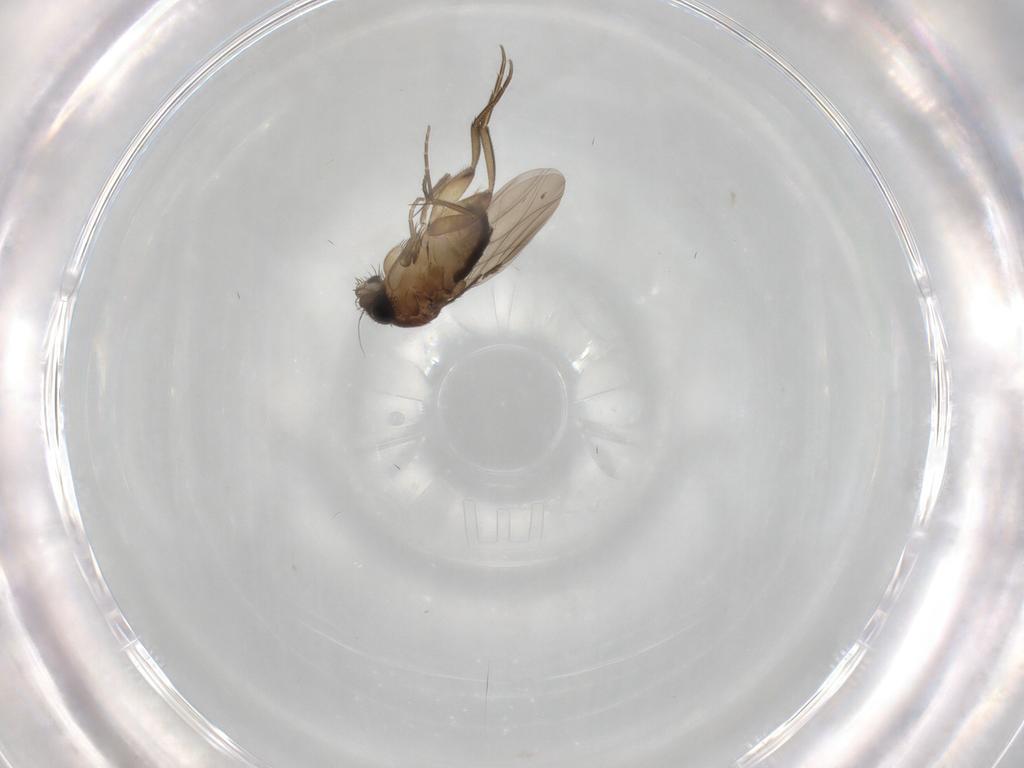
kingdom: Animalia
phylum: Arthropoda
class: Insecta
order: Diptera
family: Phoridae
